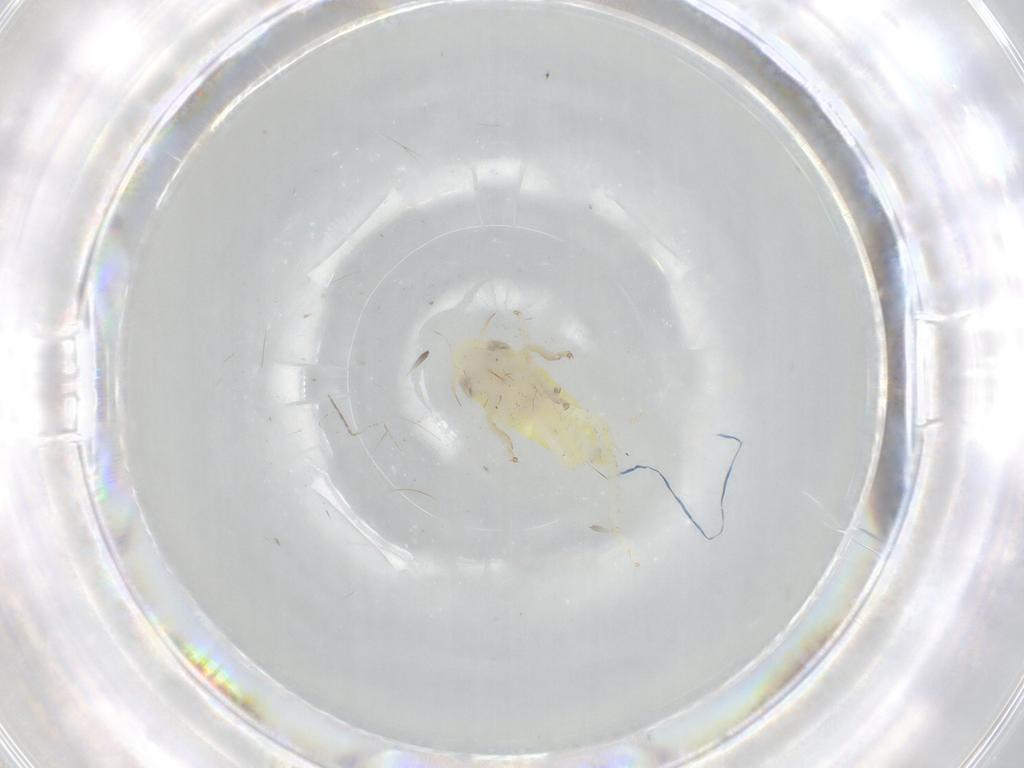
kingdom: Animalia
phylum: Arthropoda
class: Insecta
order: Hemiptera
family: Cicadellidae
